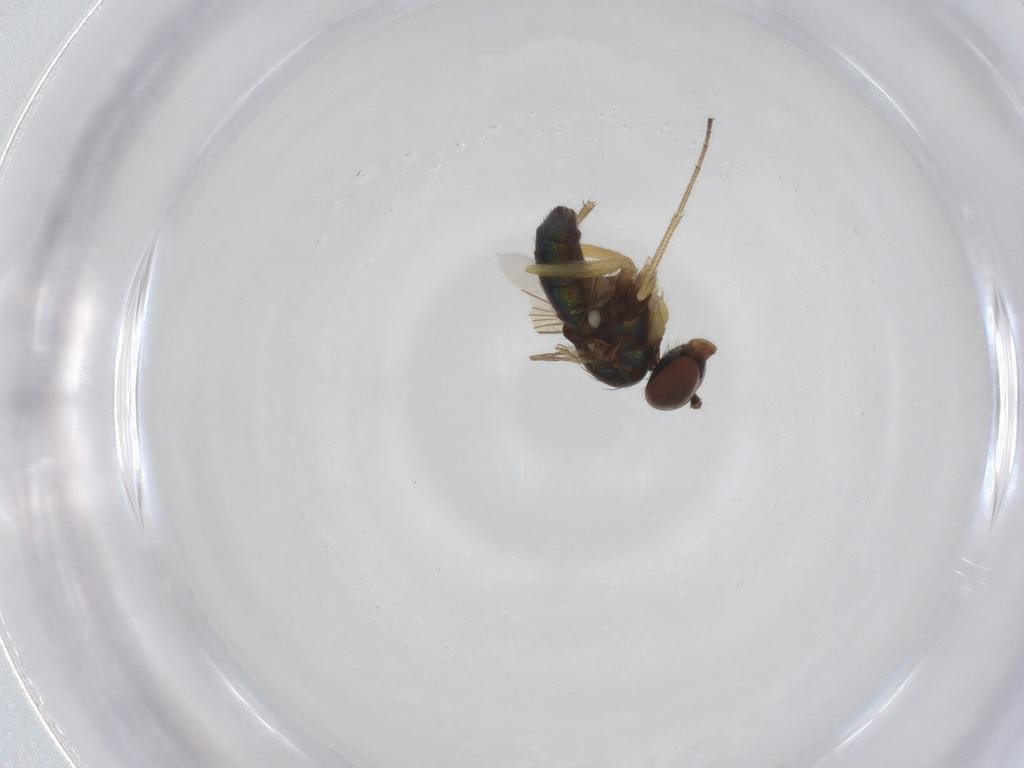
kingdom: Animalia
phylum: Arthropoda
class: Insecta
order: Diptera
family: Dolichopodidae
